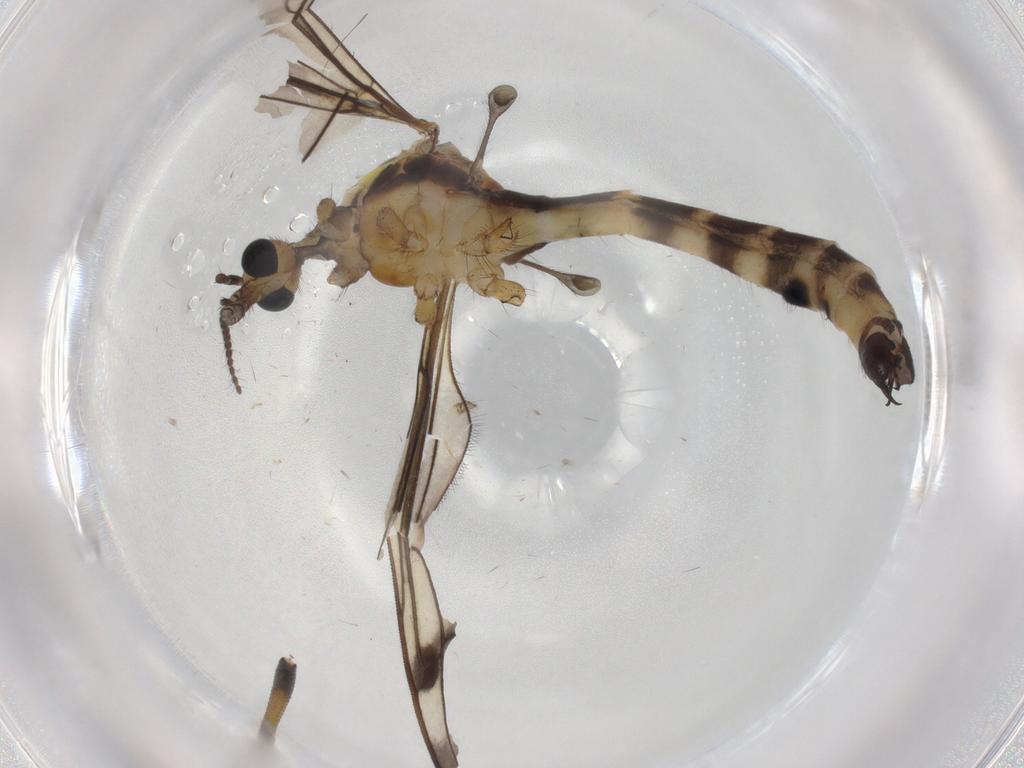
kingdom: Animalia
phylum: Arthropoda
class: Insecta
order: Diptera
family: Limoniidae
